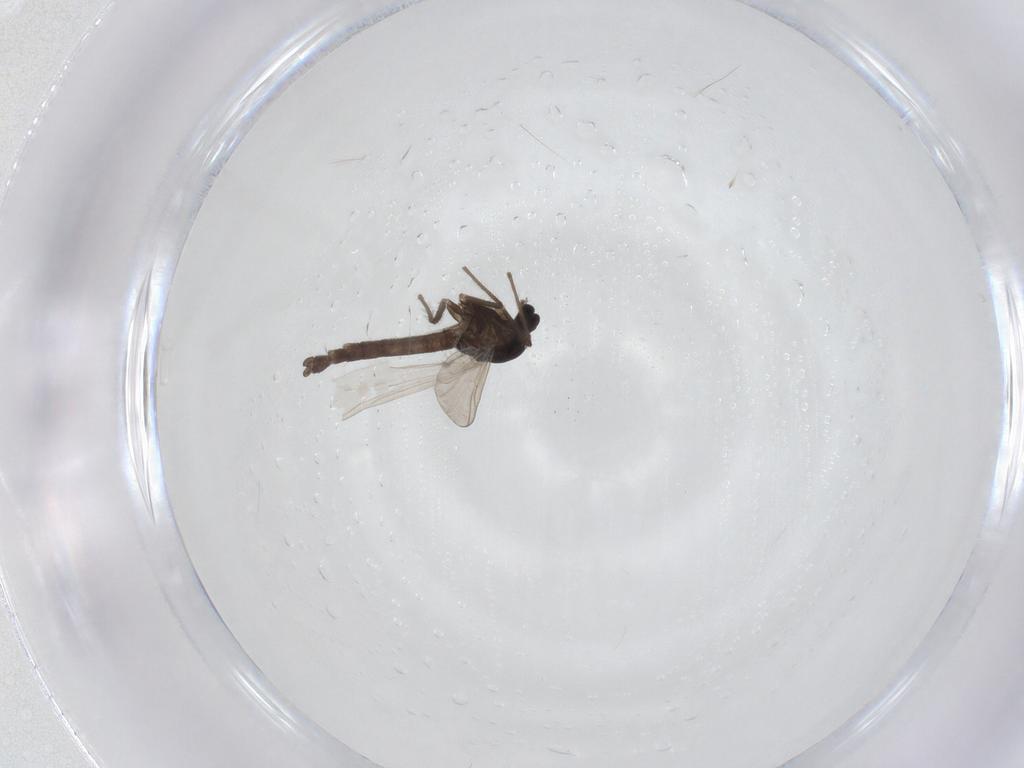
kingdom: Animalia
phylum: Arthropoda
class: Insecta
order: Diptera
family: Chironomidae
